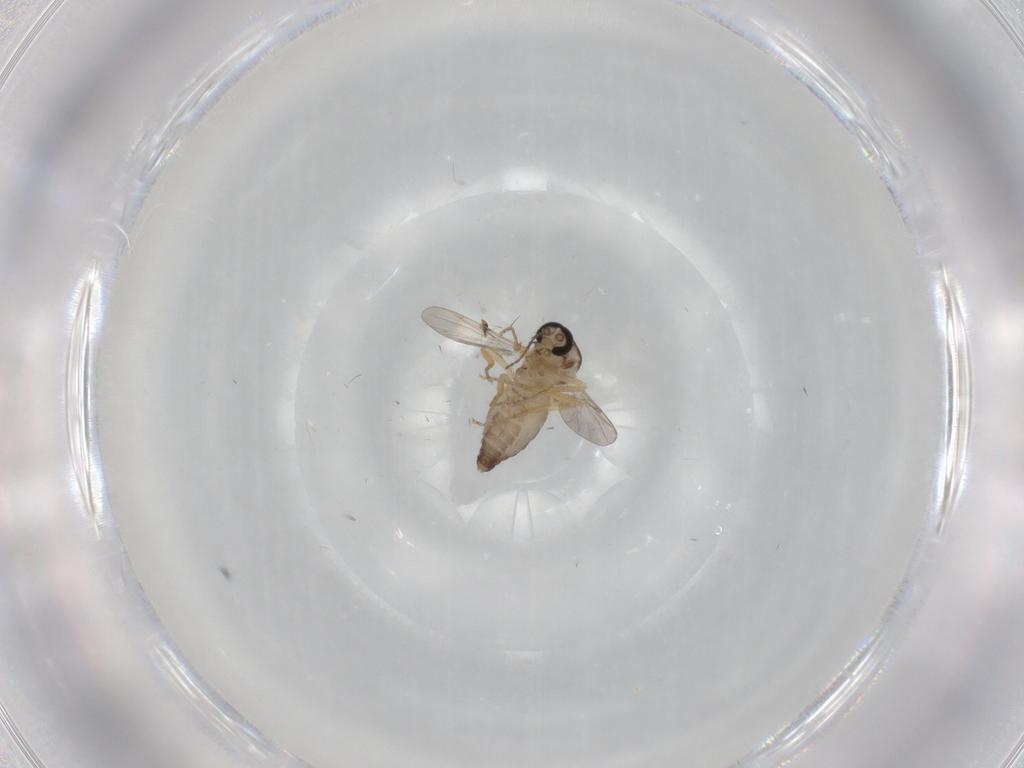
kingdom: Animalia
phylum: Arthropoda
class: Insecta
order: Diptera
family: Ceratopogonidae
